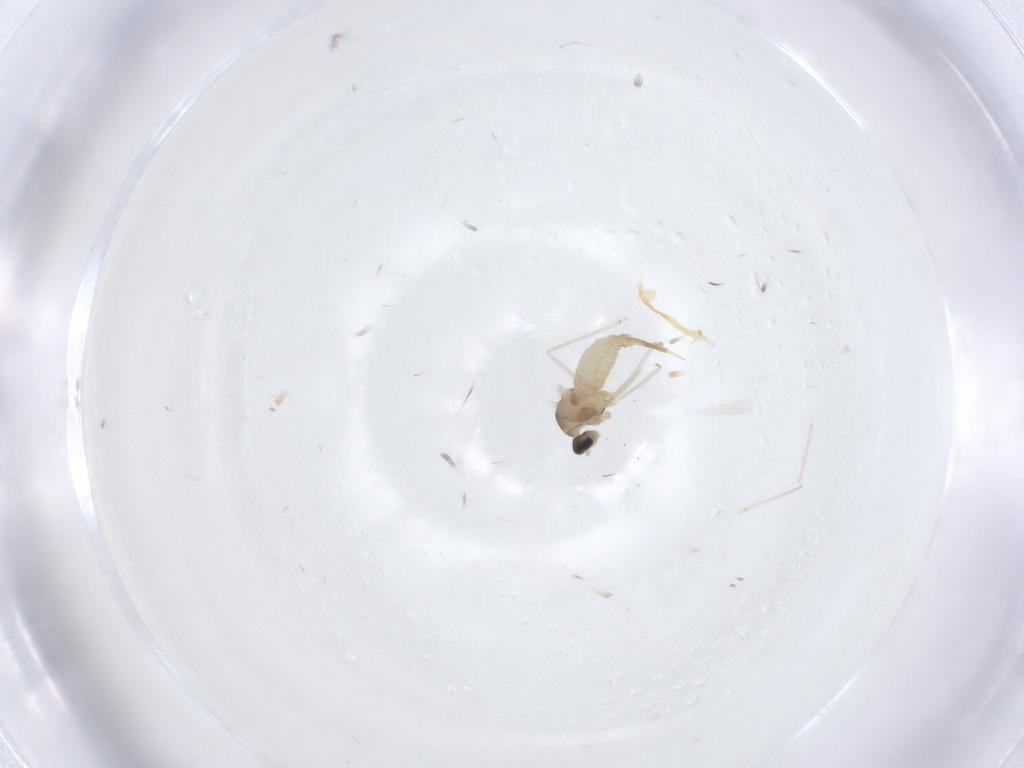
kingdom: Animalia
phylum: Arthropoda
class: Insecta
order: Diptera
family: Cecidomyiidae
